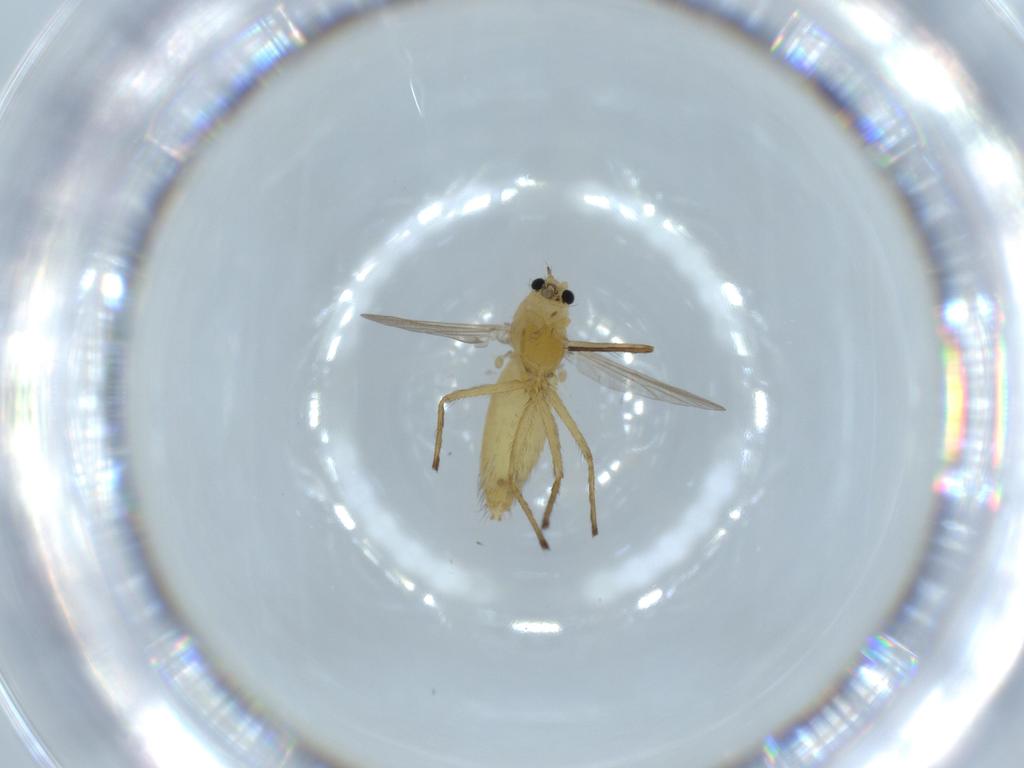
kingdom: Animalia
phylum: Arthropoda
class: Insecta
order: Diptera
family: Chironomidae
